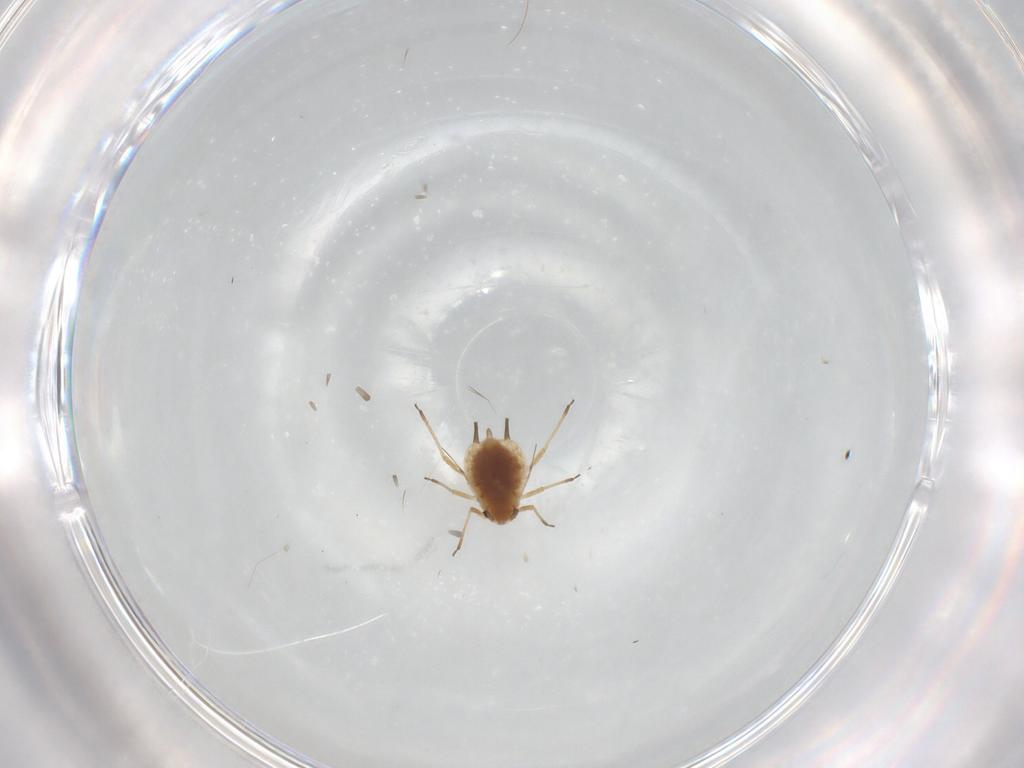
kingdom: Animalia
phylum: Arthropoda
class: Insecta
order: Hemiptera
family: Aphididae
